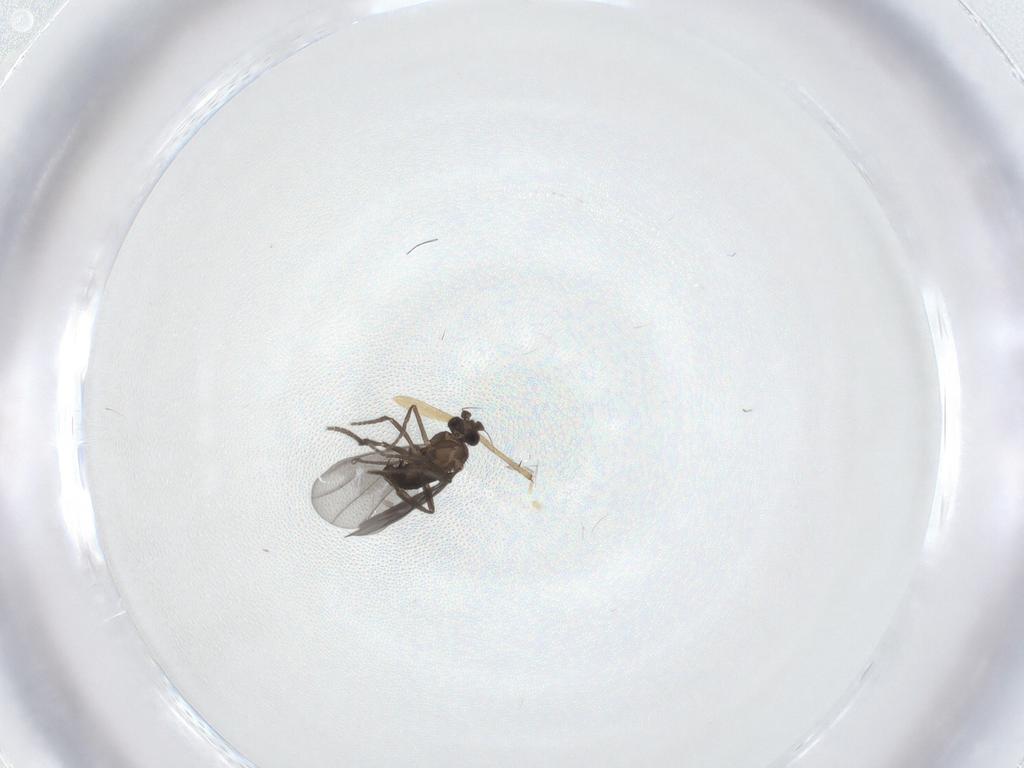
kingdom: Animalia
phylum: Arthropoda
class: Insecta
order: Diptera
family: Phoridae
